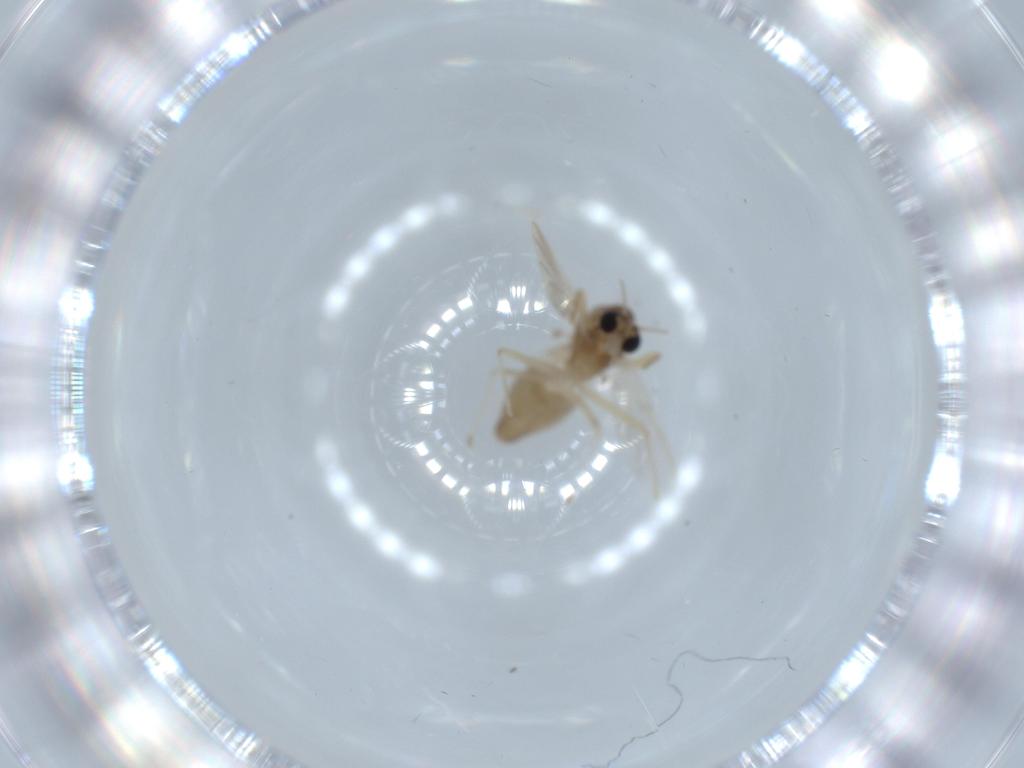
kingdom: Animalia
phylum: Arthropoda
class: Insecta
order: Diptera
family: Chironomidae
